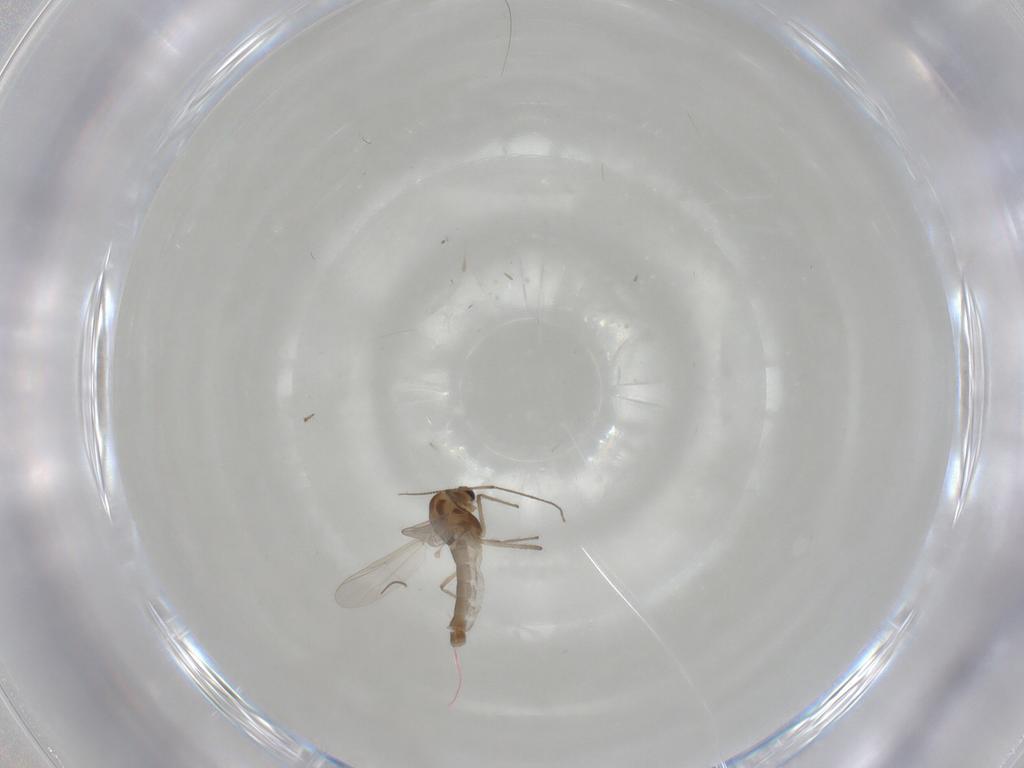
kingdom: Animalia
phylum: Arthropoda
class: Insecta
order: Diptera
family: Chironomidae
